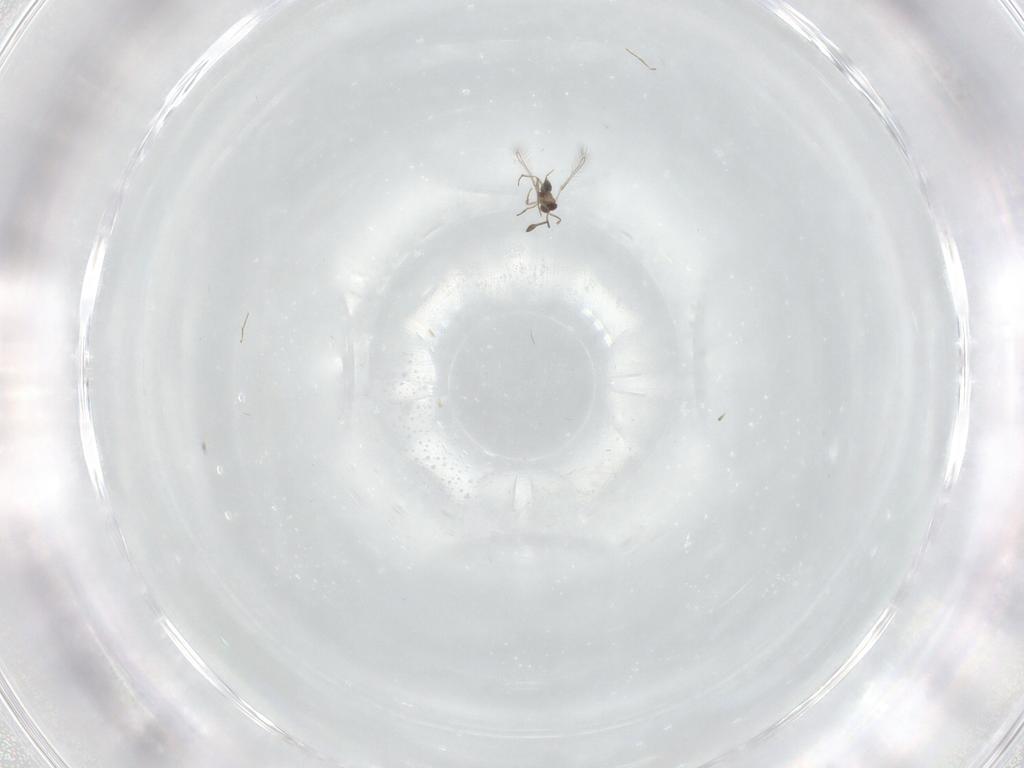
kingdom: Animalia
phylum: Arthropoda
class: Insecta
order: Hymenoptera
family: Mymaridae
